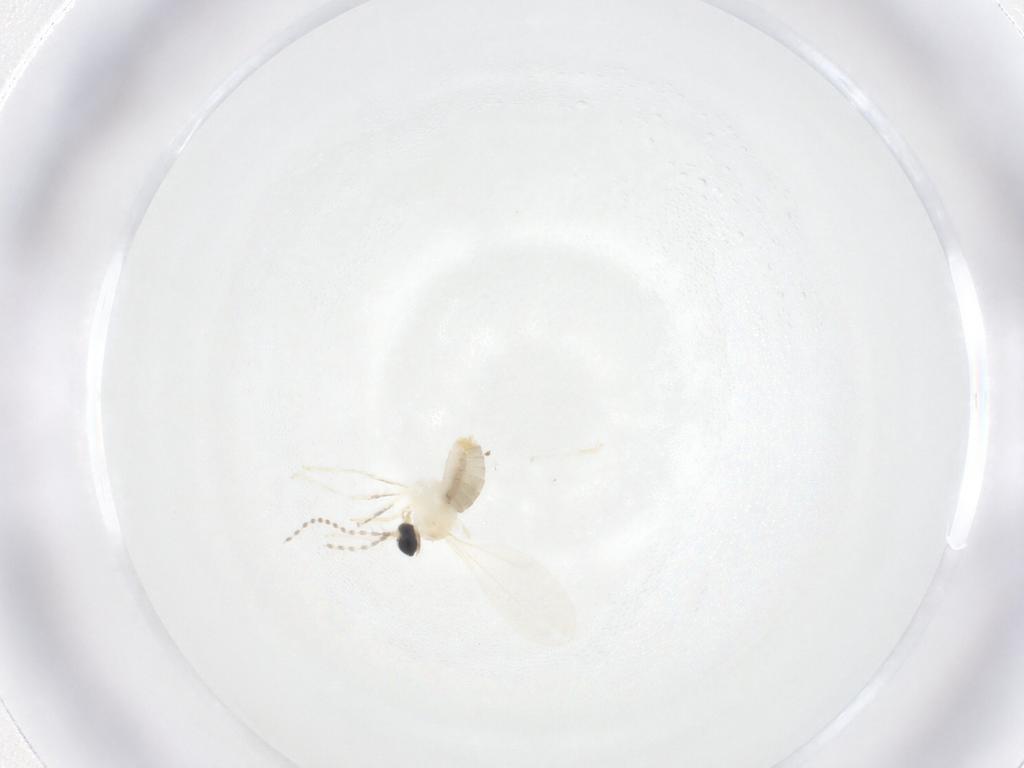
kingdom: Animalia
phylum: Arthropoda
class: Insecta
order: Diptera
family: Cecidomyiidae
